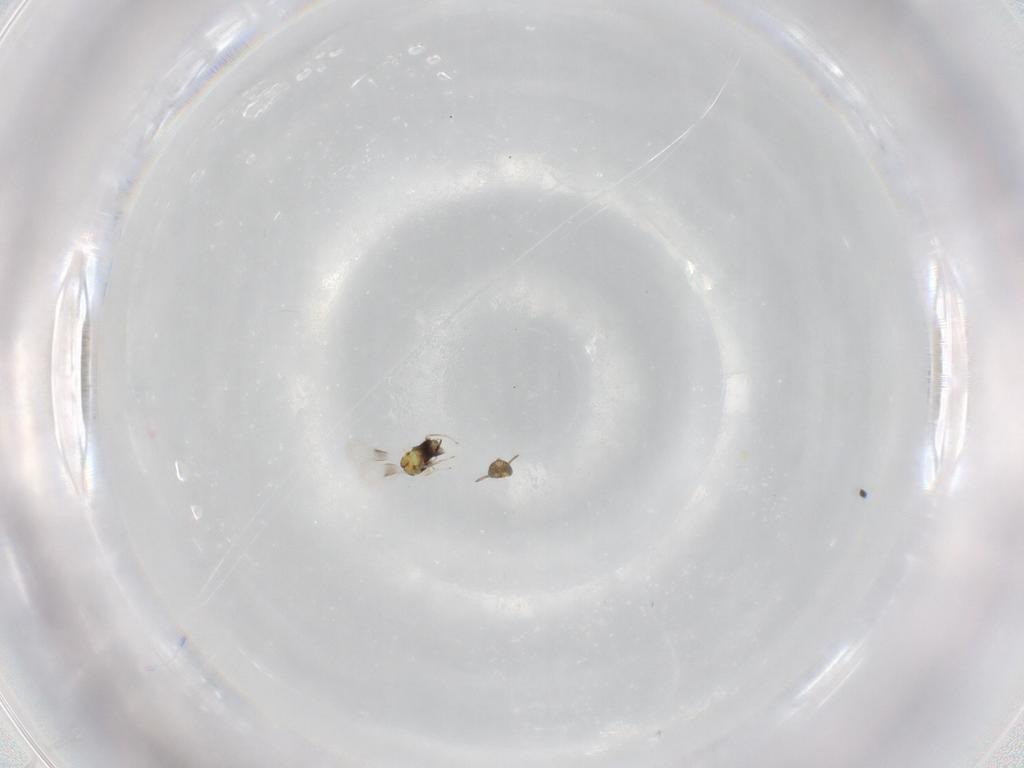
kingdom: Animalia
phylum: Arthropoda
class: Insecta
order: Hymenoptera
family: Aphelinidae
